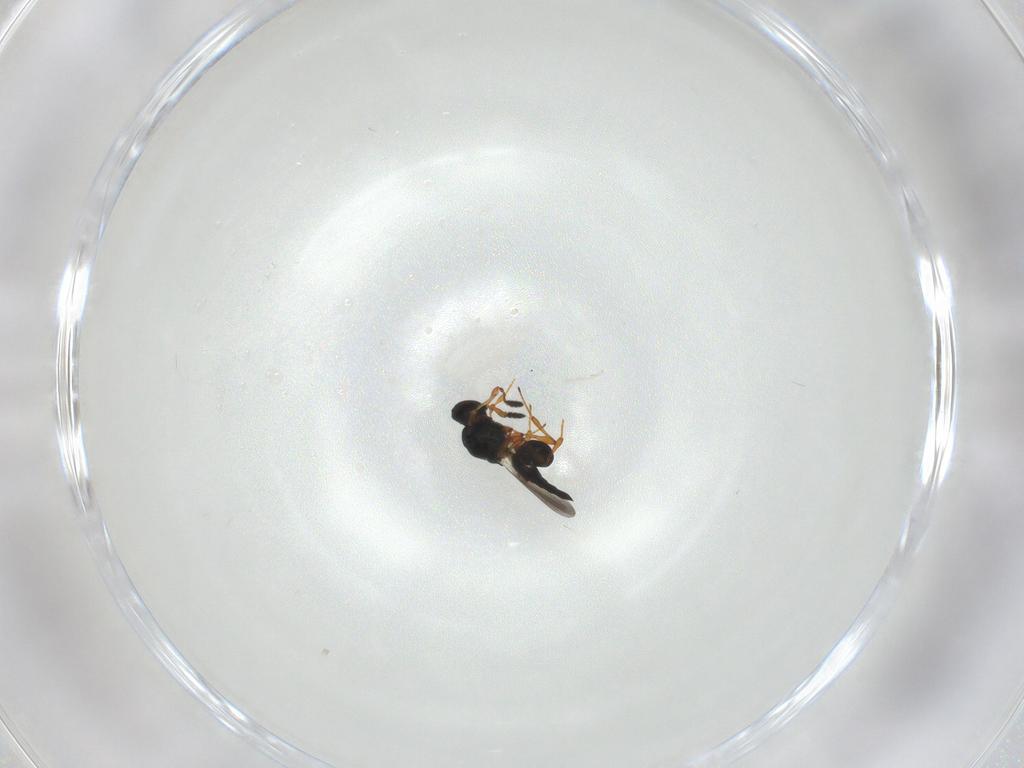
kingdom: Animalia
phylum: Arthropoda
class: Insecta
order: Hymenoptera
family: Platygastridae
